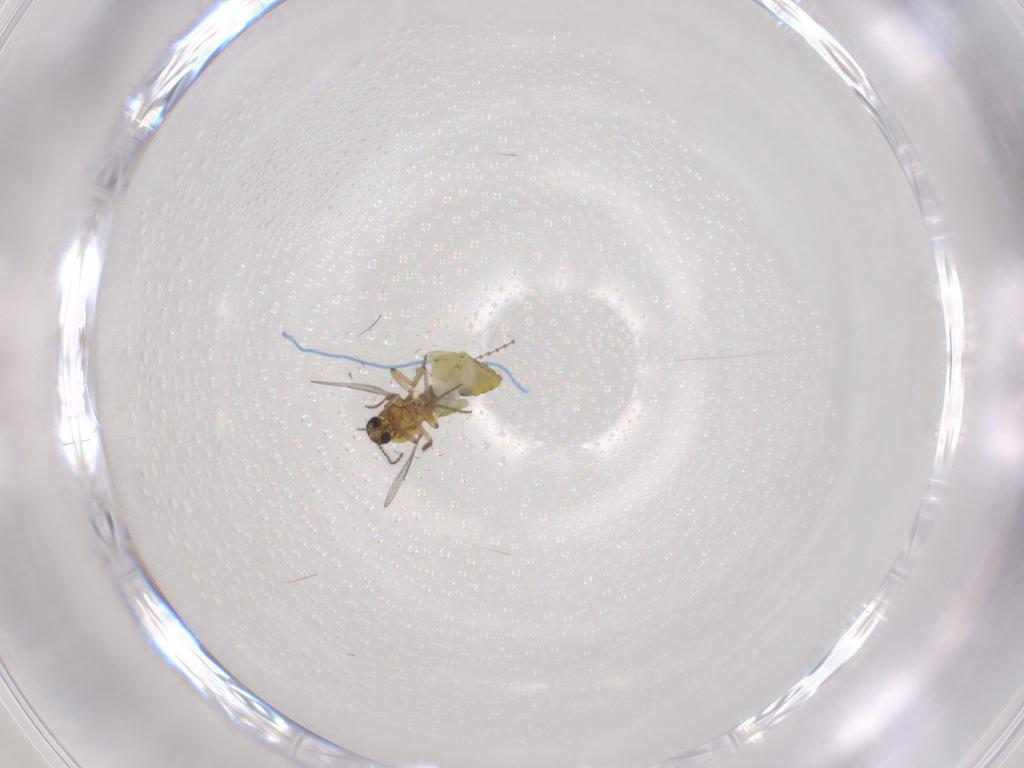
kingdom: Animalia
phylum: Arthropoda
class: Insecta
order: Diptera
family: Ceratopogonidae
